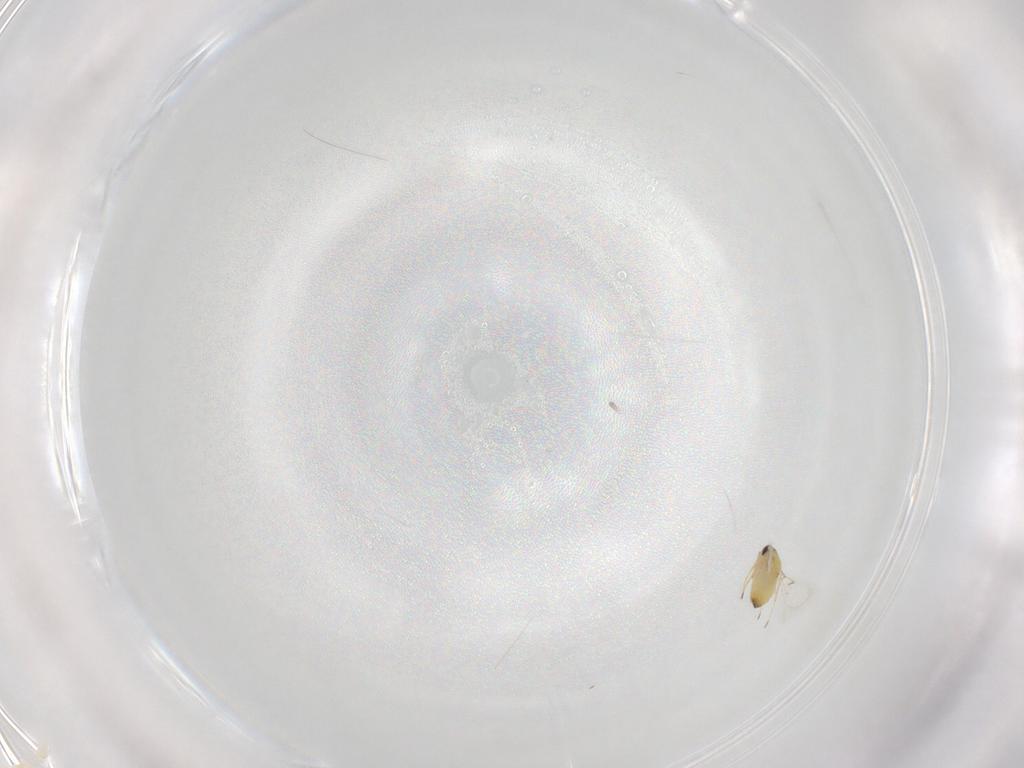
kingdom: Animalia
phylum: Arthropoda
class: Insecta
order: Hymenoptera
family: Trichogrammatidae
